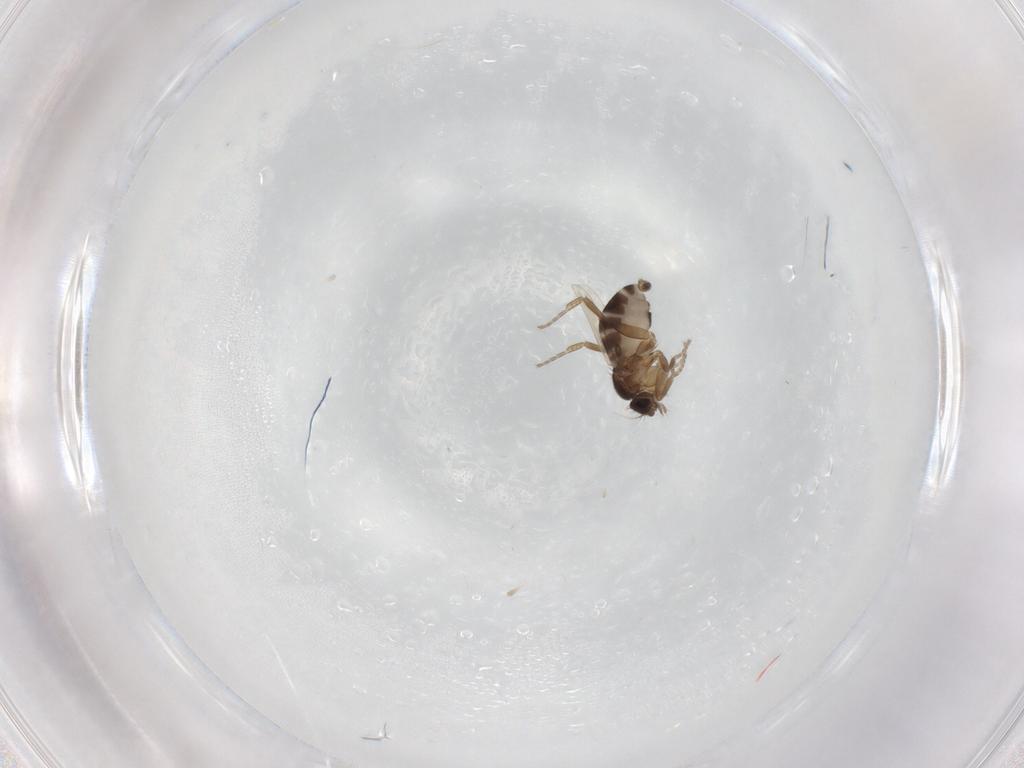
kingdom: Animalia
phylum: Arthropoda
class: Insecta
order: Diptera
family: Phoridae
